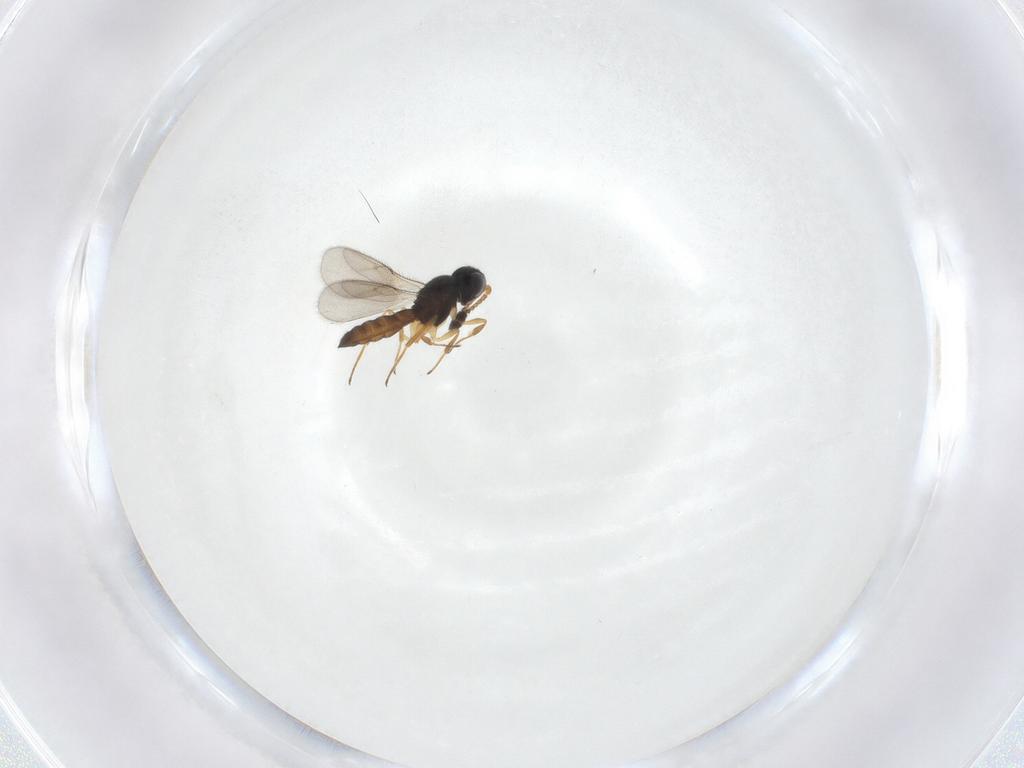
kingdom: Animalia
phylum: Arthropoda
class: Insecta
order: Hymenoptera
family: Scelionidae
